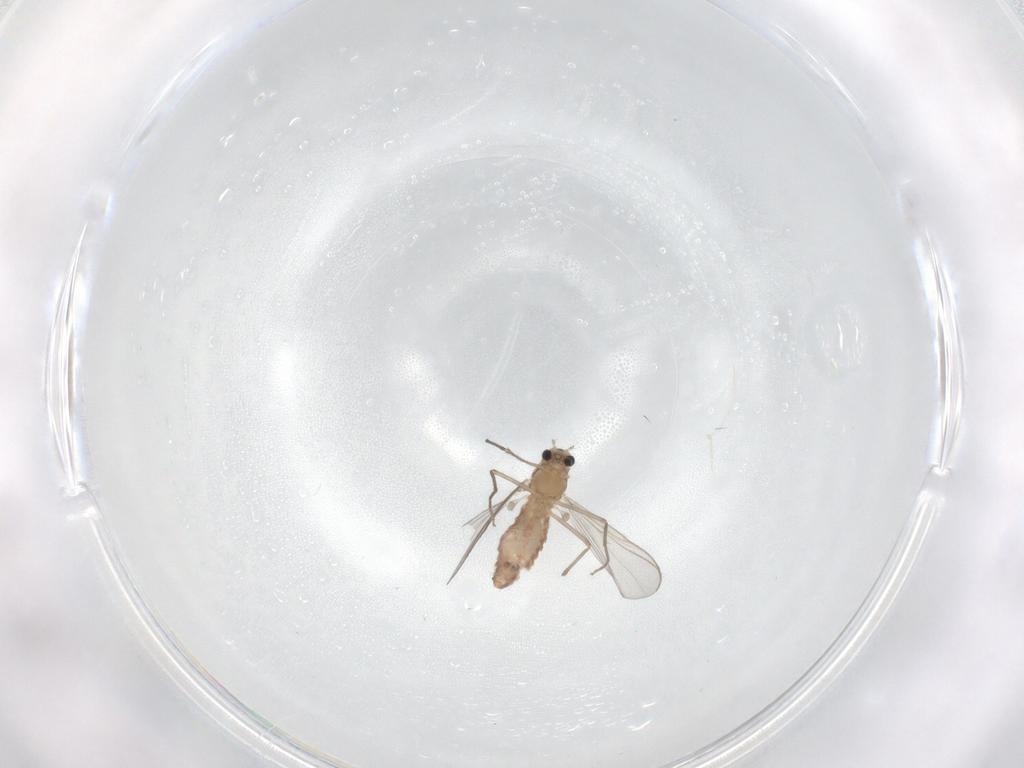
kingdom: Animalia
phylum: Arthropoda
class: Insecta
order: Diptera
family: Chironomidae
